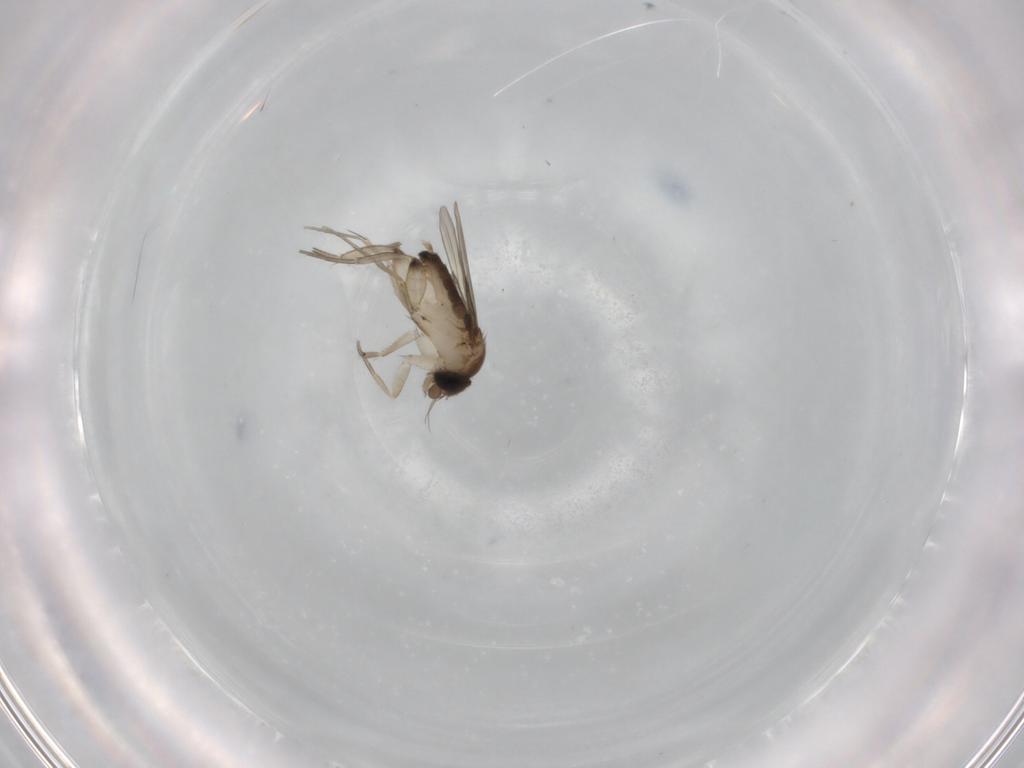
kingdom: Animalia
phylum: Arthropoda
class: Insecta
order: Diptera
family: Phoridae
